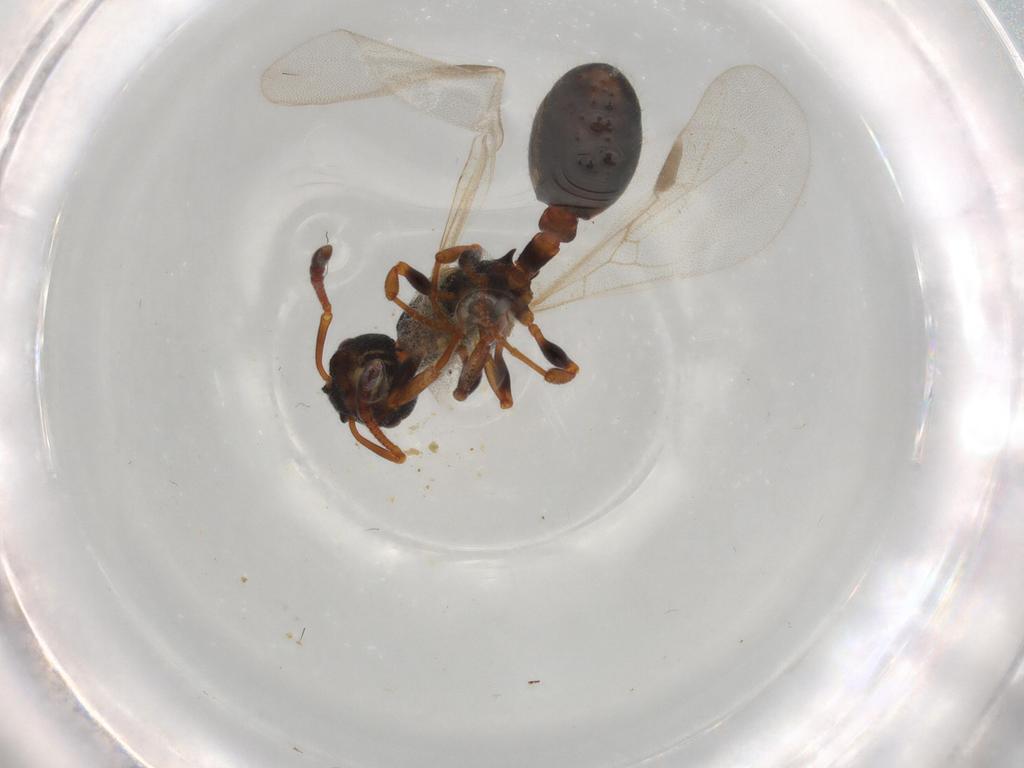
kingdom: Animalia
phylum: Arthropoda
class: Insecta
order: Hymenoptera
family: Formicidae
